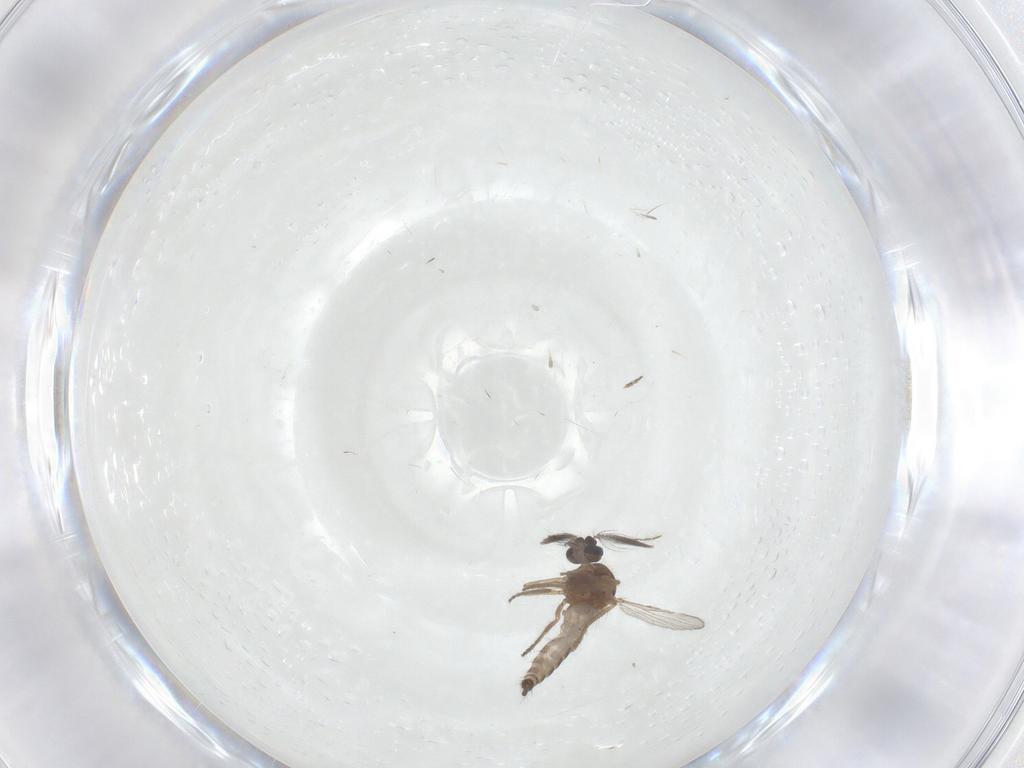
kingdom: Animalia
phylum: Arthropoda
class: Insecta
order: Diptera
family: Ceratopogonidae
